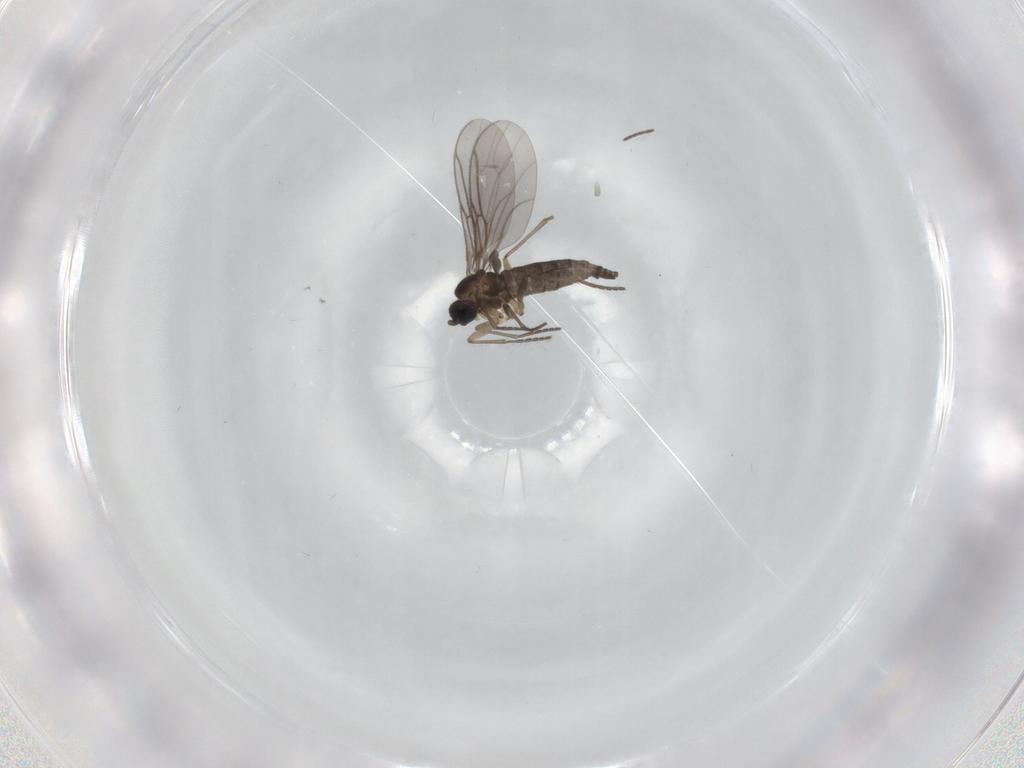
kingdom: Animalia
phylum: Arthropoda
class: Insecta
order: Diptera
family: Sciaridae
